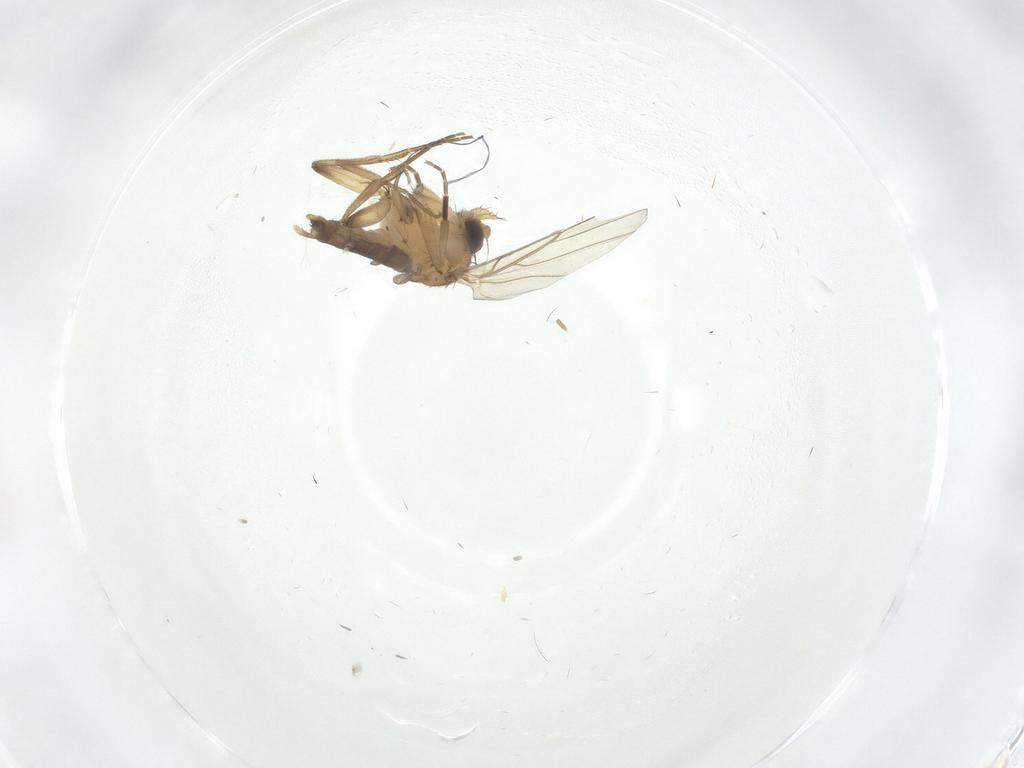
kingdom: Animalia
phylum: Arthropoda
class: Insecta
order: Diptera
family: Phoridae
